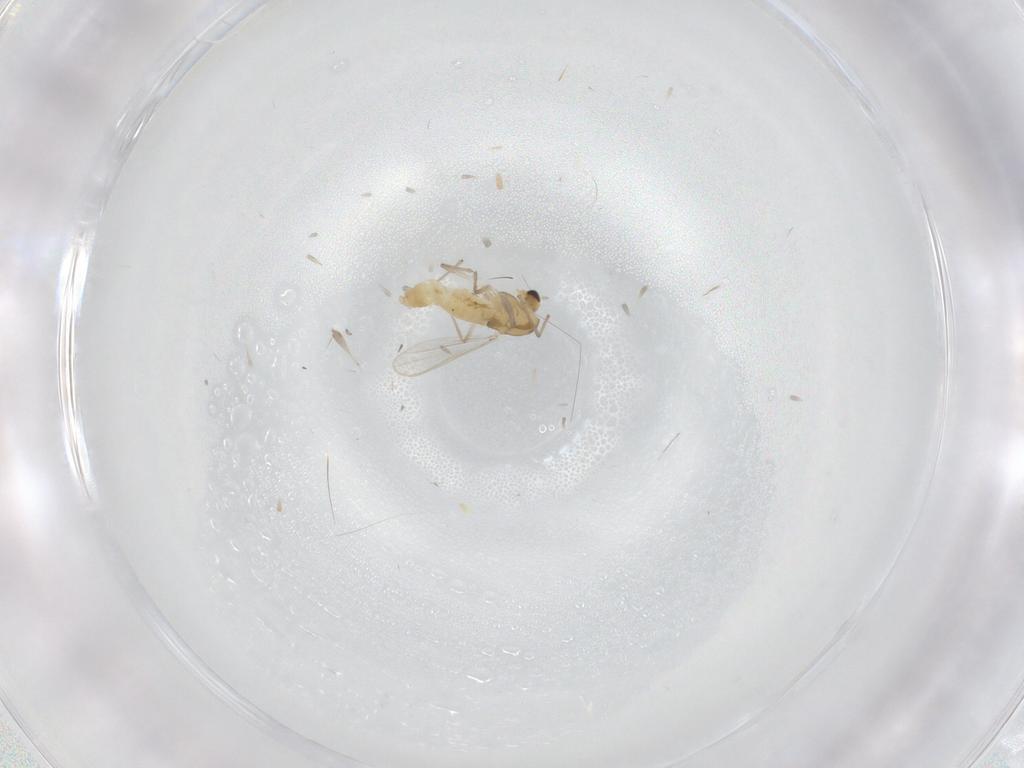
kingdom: Animalia
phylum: Arthropoda
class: Insecta
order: Diptera
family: Chironomidae
